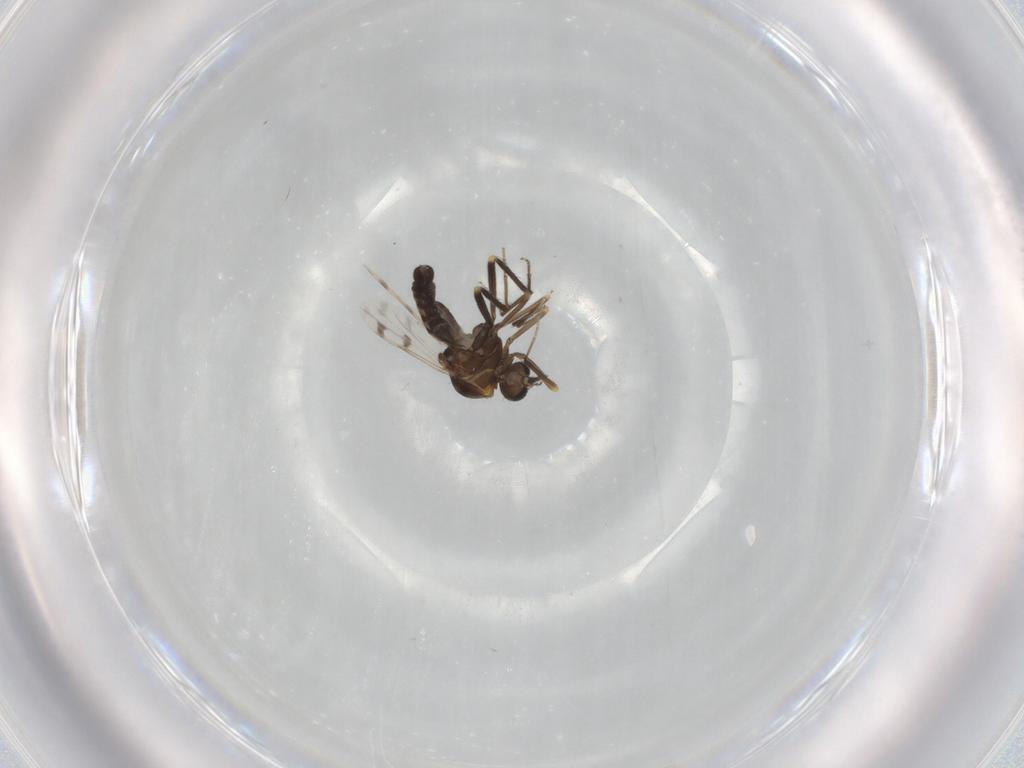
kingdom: Animalia
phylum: Arthropoda
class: Insecta
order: Diptera
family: Ceratopogonidae
